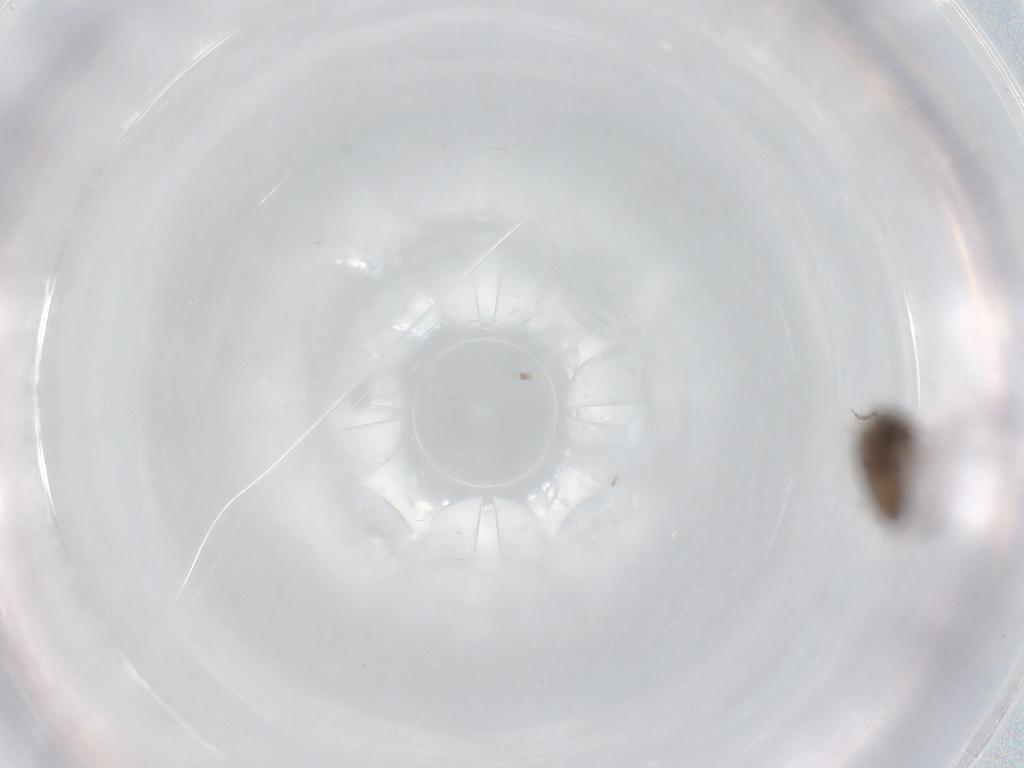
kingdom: Animalia
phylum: Arthropoda
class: Insecta
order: Diptera
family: Psychodidae
